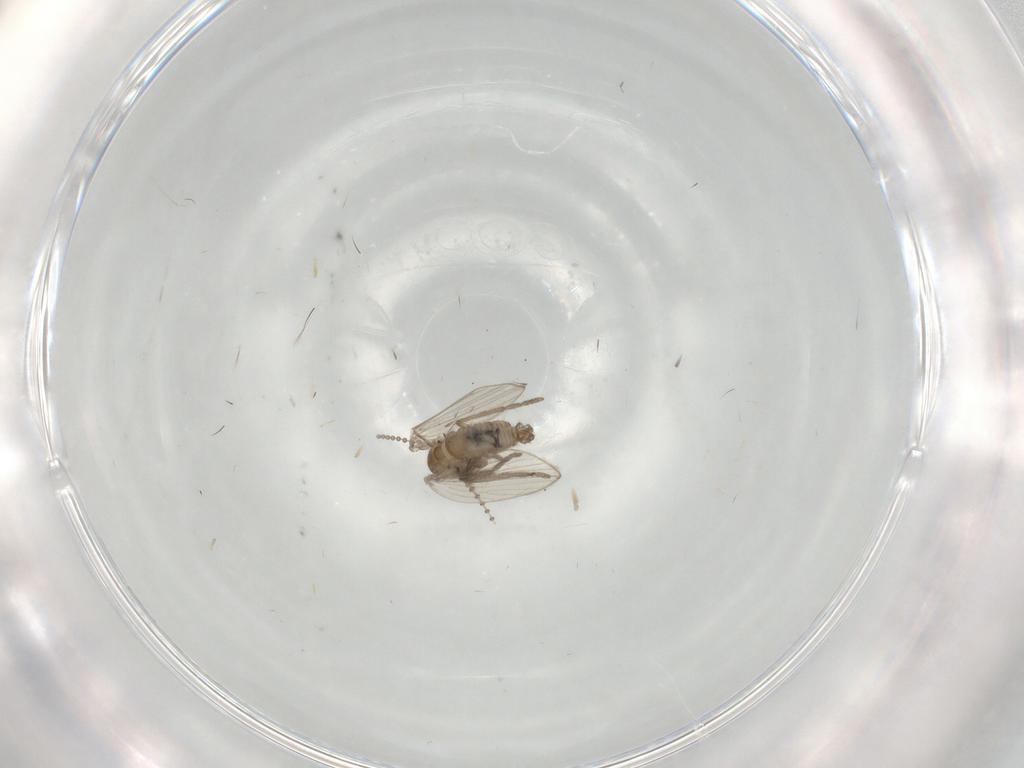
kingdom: Animalia
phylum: Arthropoda
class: Insecta
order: Diptera
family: Psychodidae
